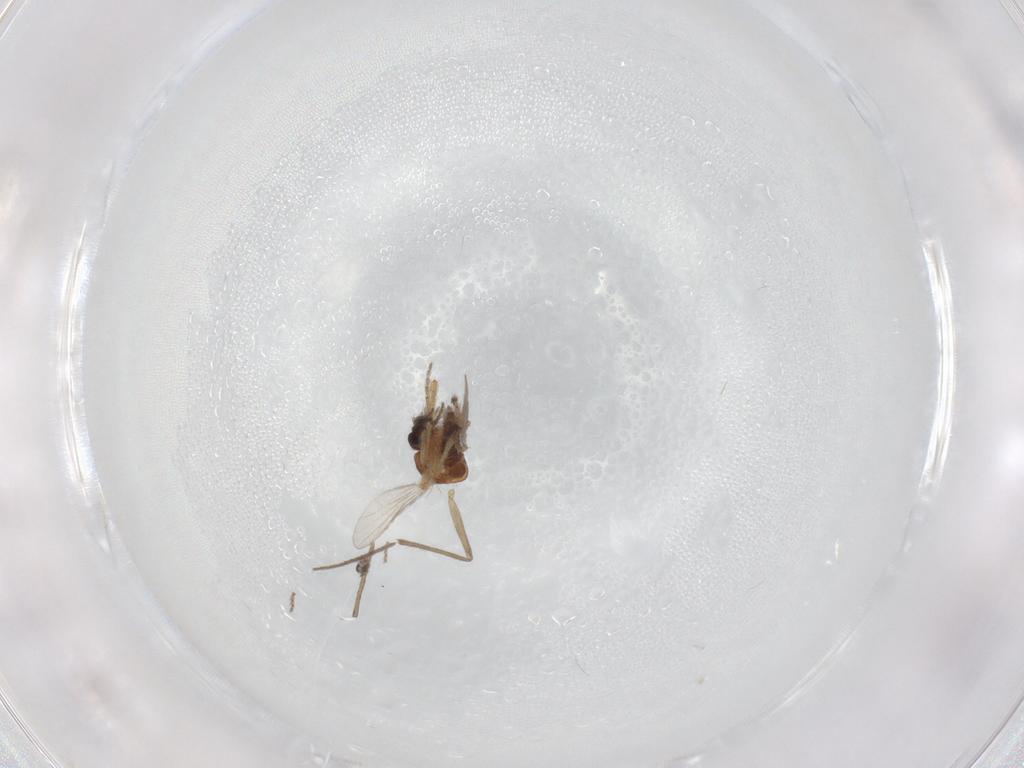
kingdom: Animalia
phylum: Arthropoda
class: Insecta
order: Diptera
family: Ceratopogonidae
